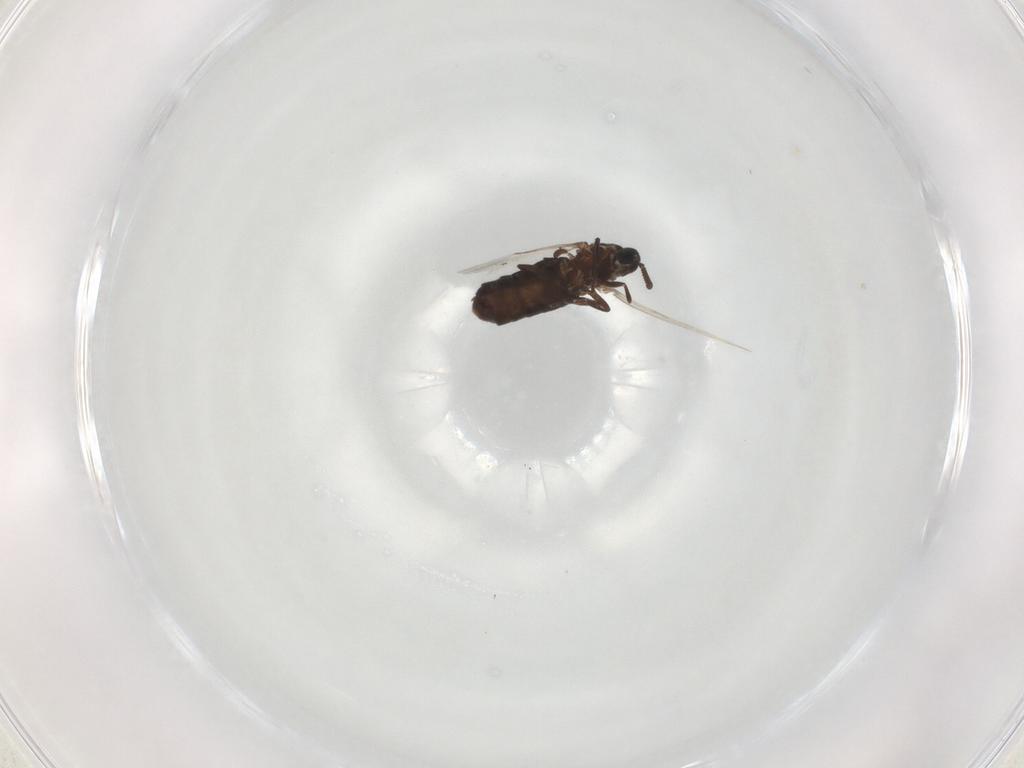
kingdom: Animalia
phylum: Arthropoda
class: Insecta
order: Diptera
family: Scatopsidae
